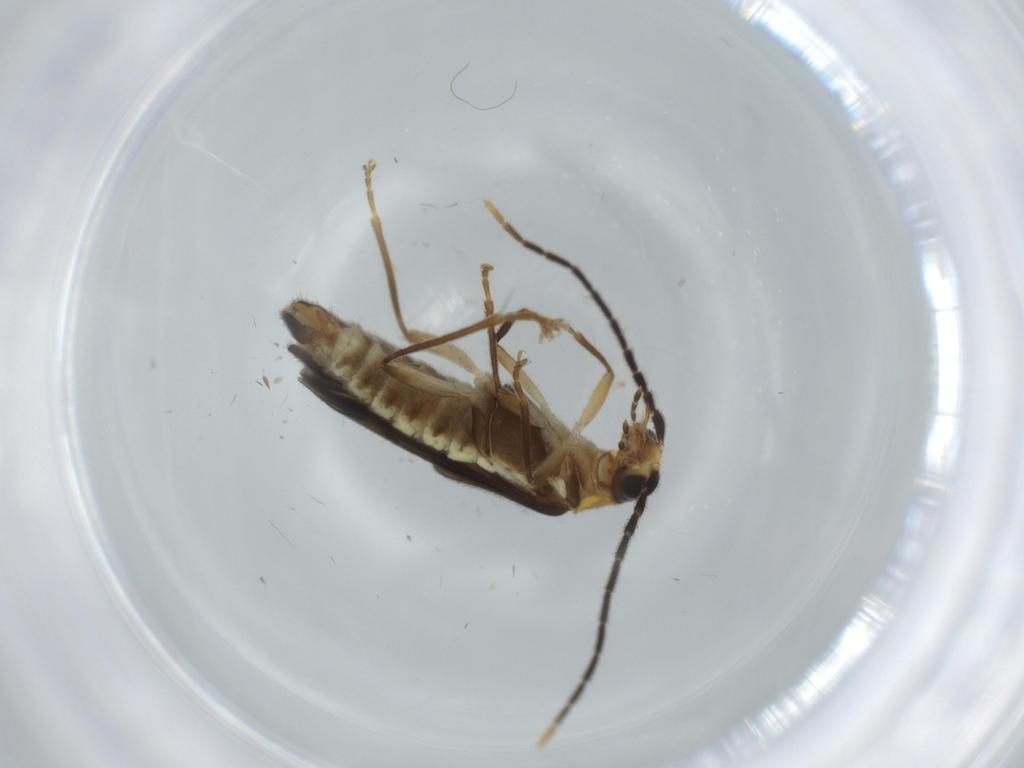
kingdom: Animalia
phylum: Arthropoda
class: Insecta
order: Coleoptera
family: Cantharidae
